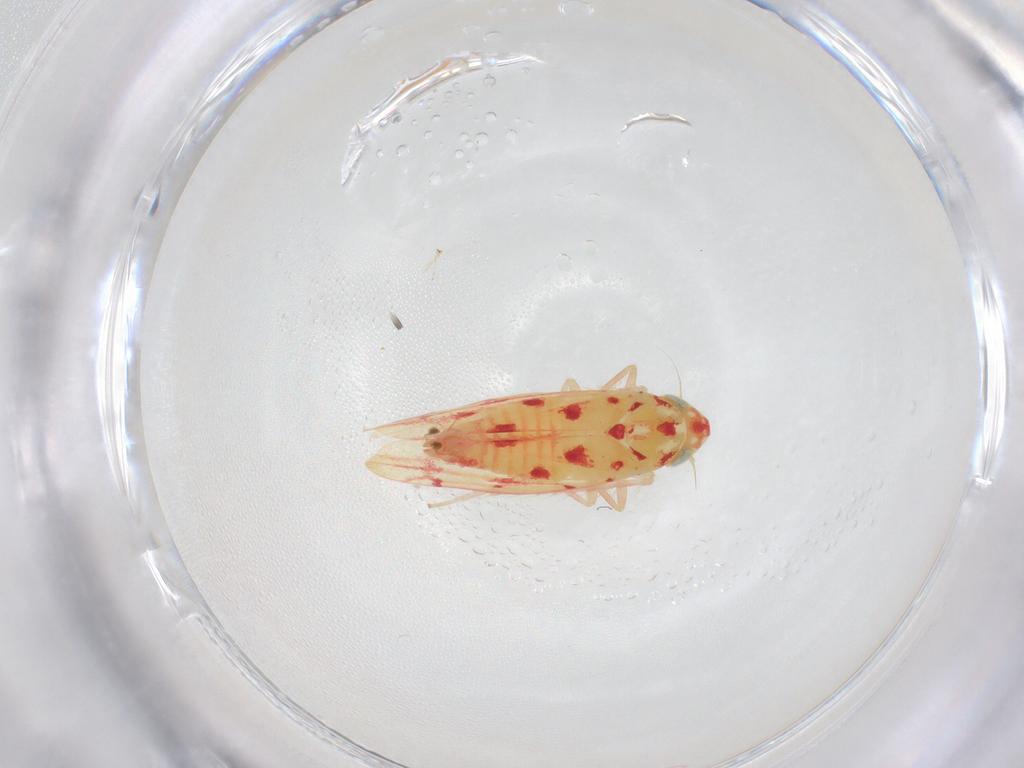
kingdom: Animalia
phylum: Arthropoda
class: Insecta
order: Hemiptera
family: Cicadellidae
